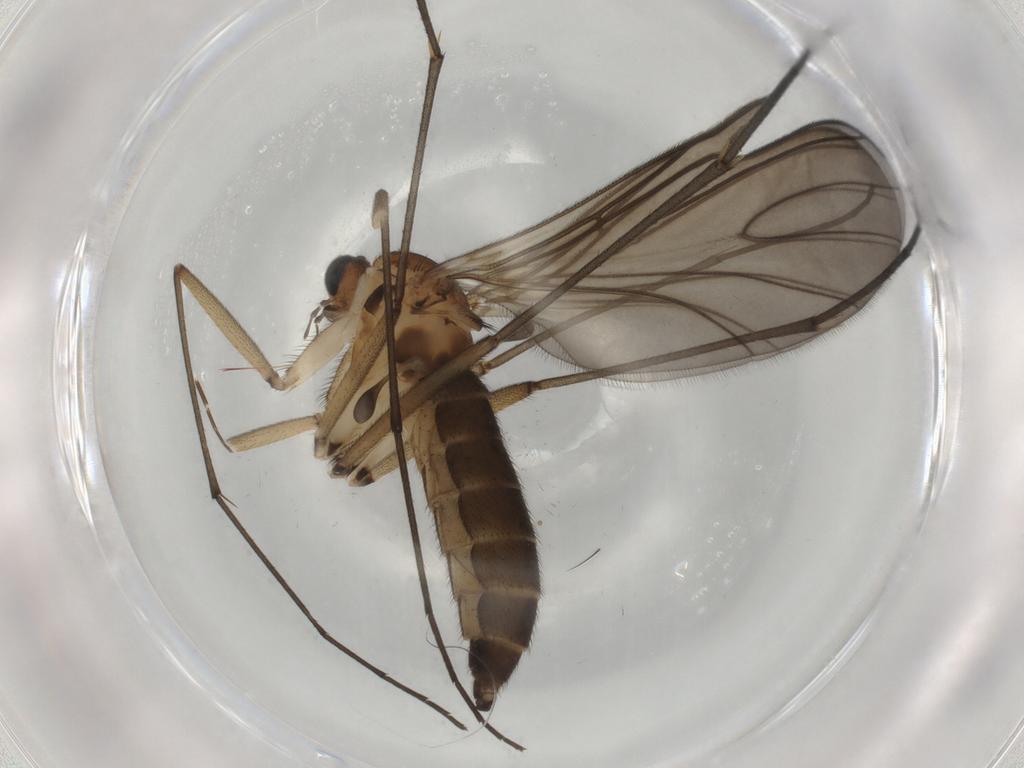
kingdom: Animalia
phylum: Arthropoda
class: Insecta
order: Diptera
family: Sciaridae
